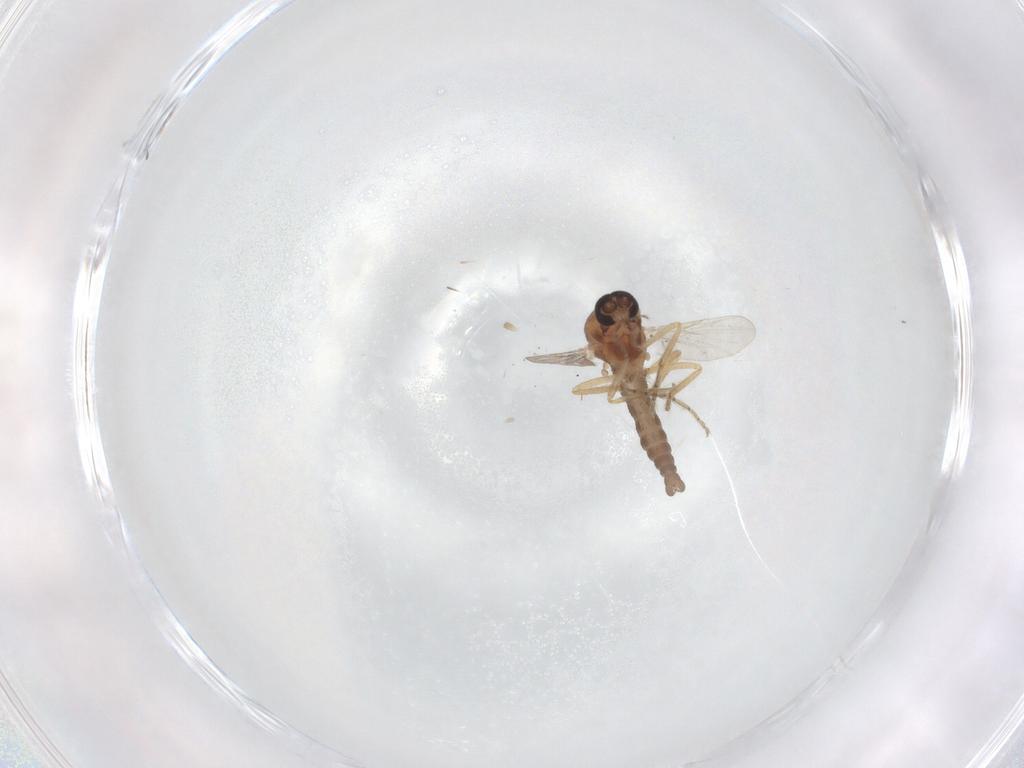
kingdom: Animalia
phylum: Arthropoda
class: Insecta
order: Diptera
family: Ceratopogonidae
